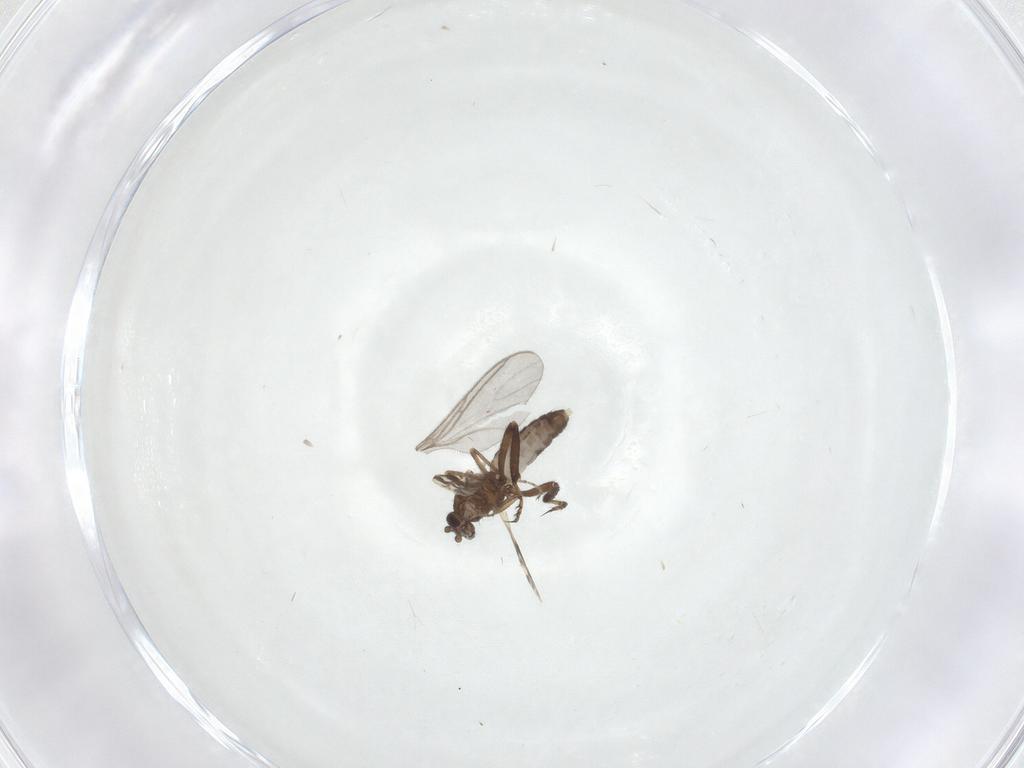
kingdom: Animalia
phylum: Arthropoda
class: Insecta
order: Diptera
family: Ceratopogonidae
